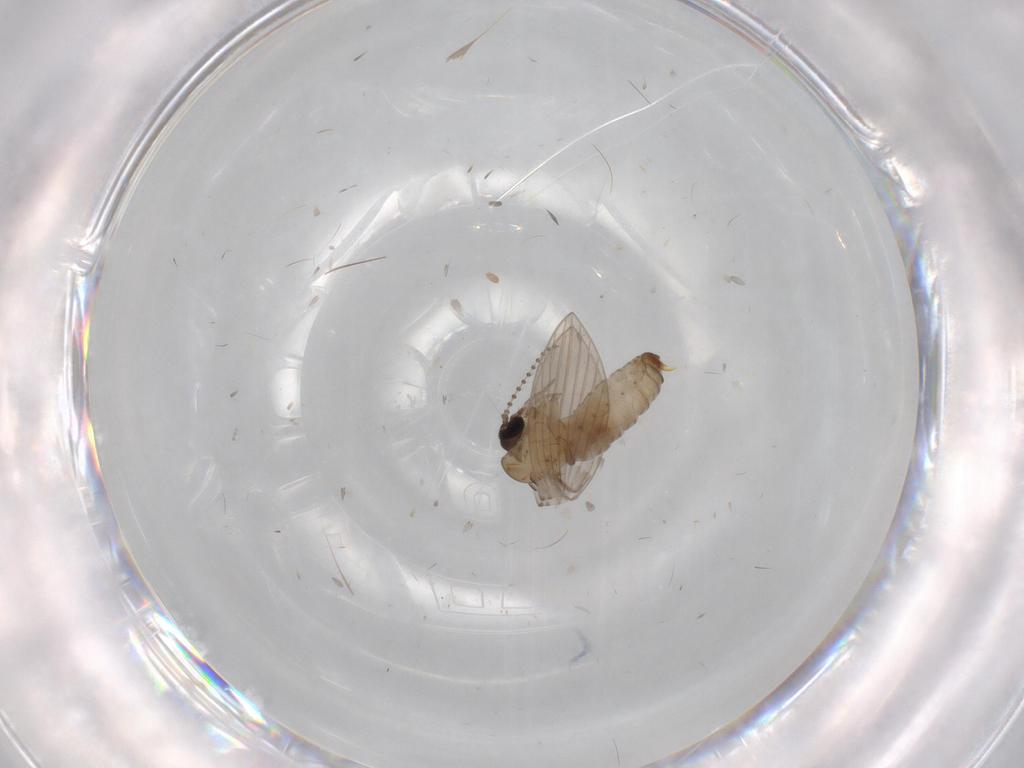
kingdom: Animalia
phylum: Arthropoda
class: Insecta
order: Diptera
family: Psychodidae
